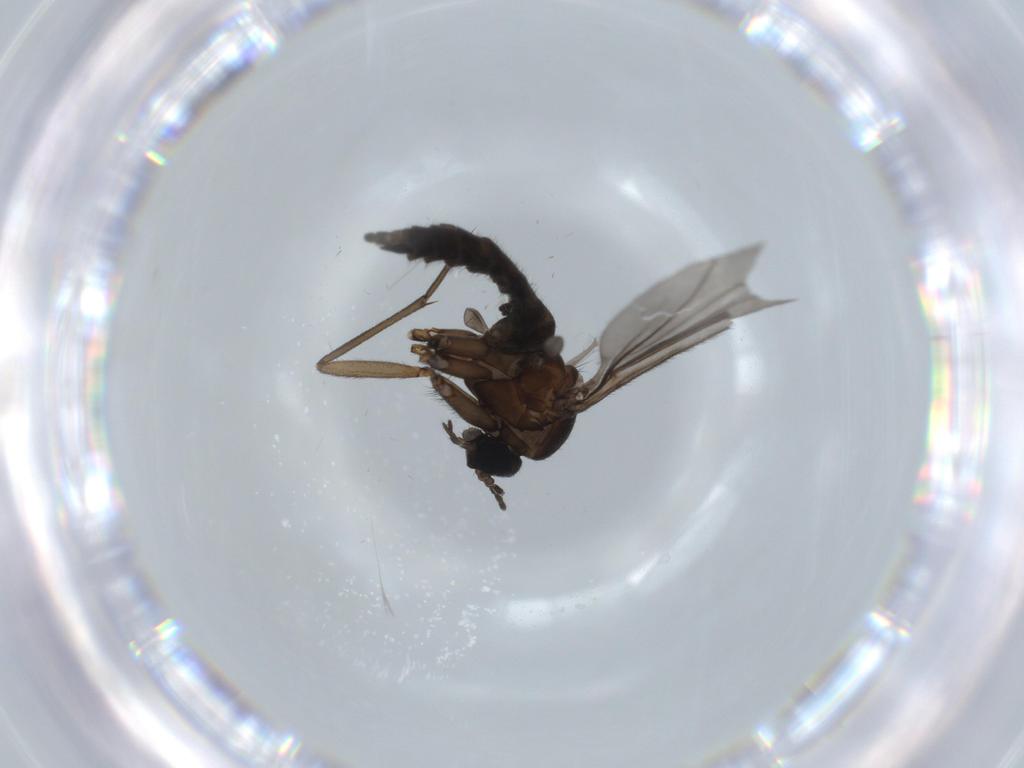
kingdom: Animalia
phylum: Arthropoda
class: Insecta
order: Diptera
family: Sciaridae
